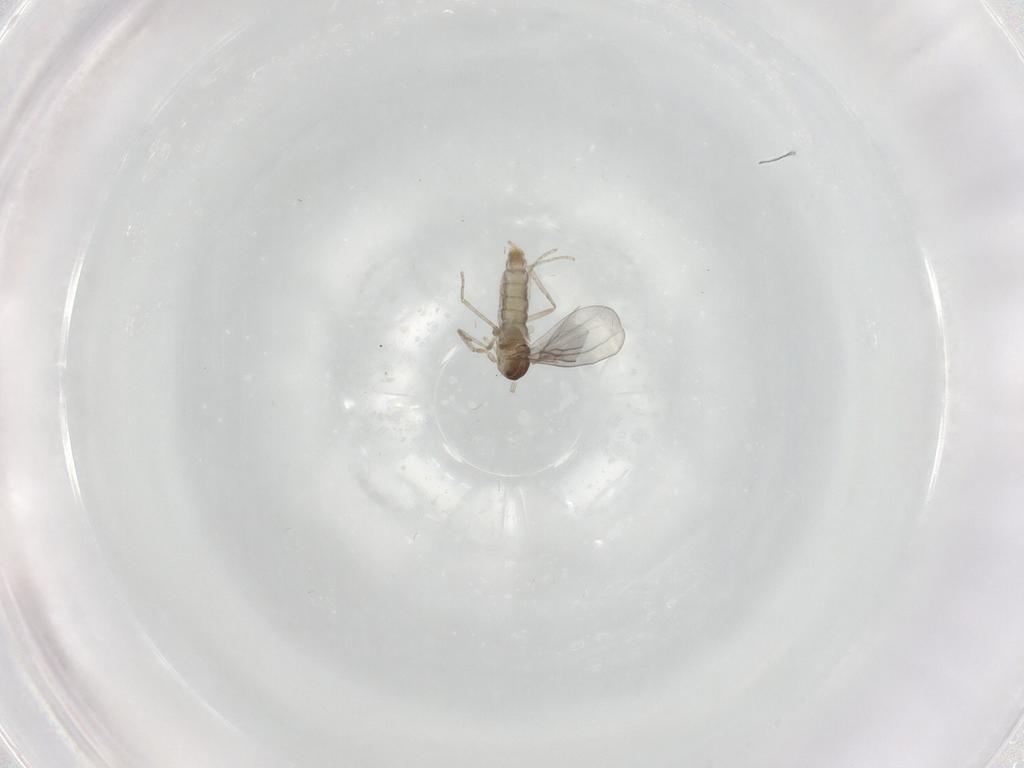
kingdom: Animalia
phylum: Arthropoda
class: Insecta
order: Diptera
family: Cecidomyiidae
